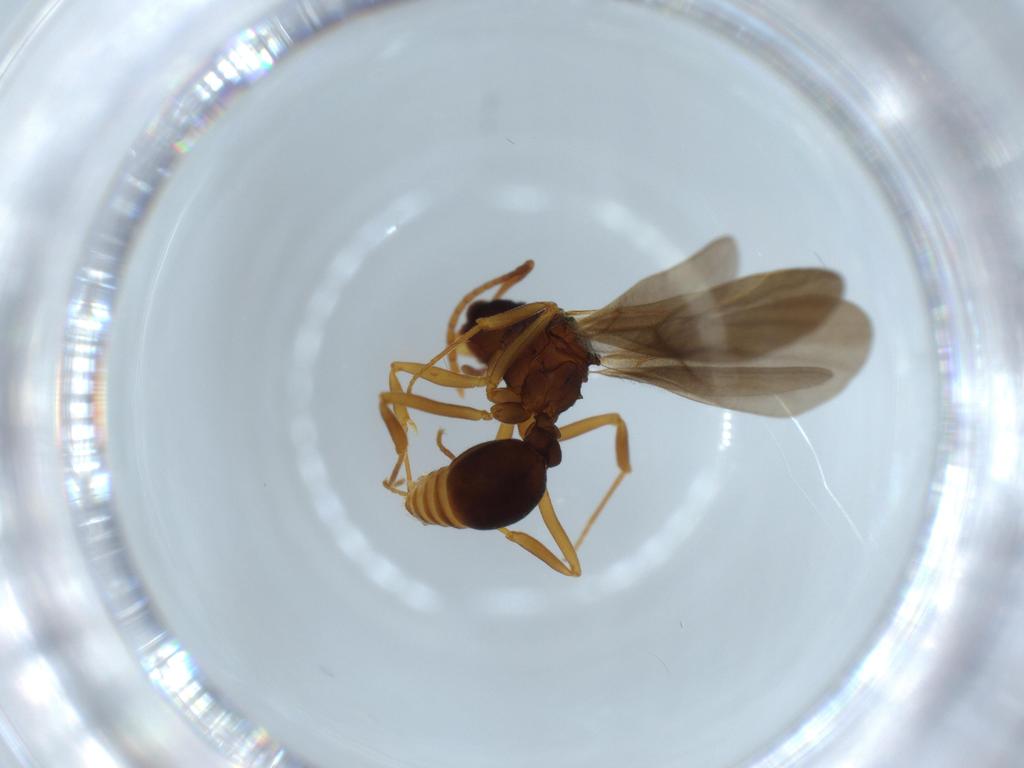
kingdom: Animalia
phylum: Arthropoda
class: Insecta
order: Hymenoptera
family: Formicidae
